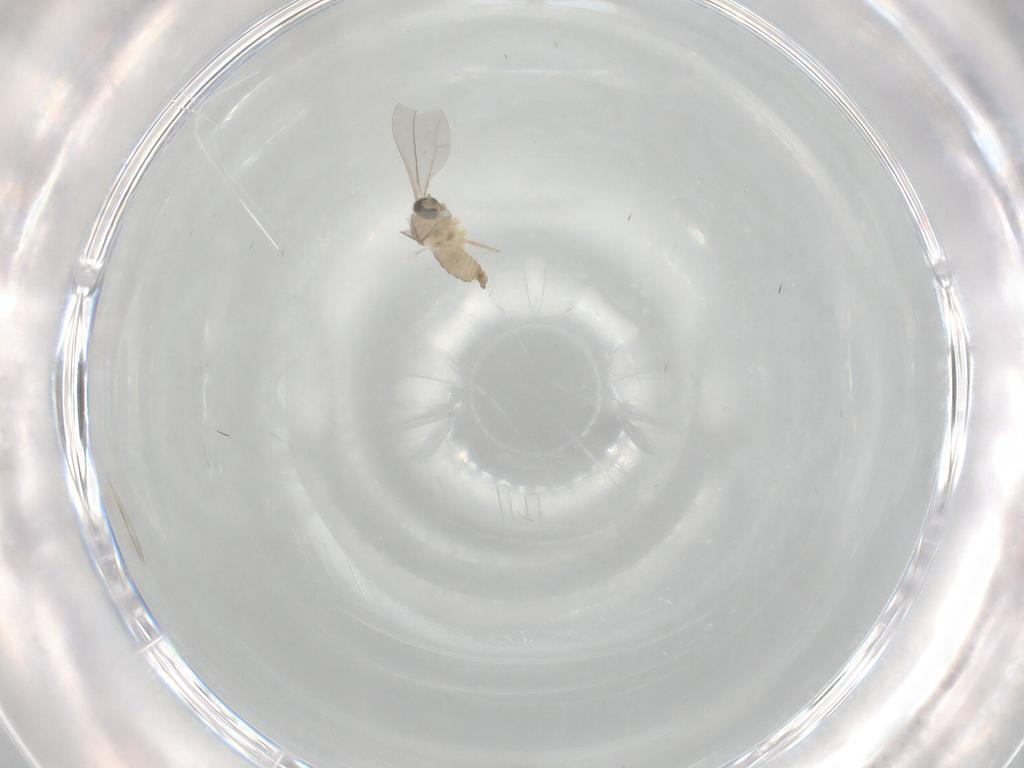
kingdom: Animalia
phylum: Arthropoda
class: Insecta
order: Diptera
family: Cecidomyiidae
